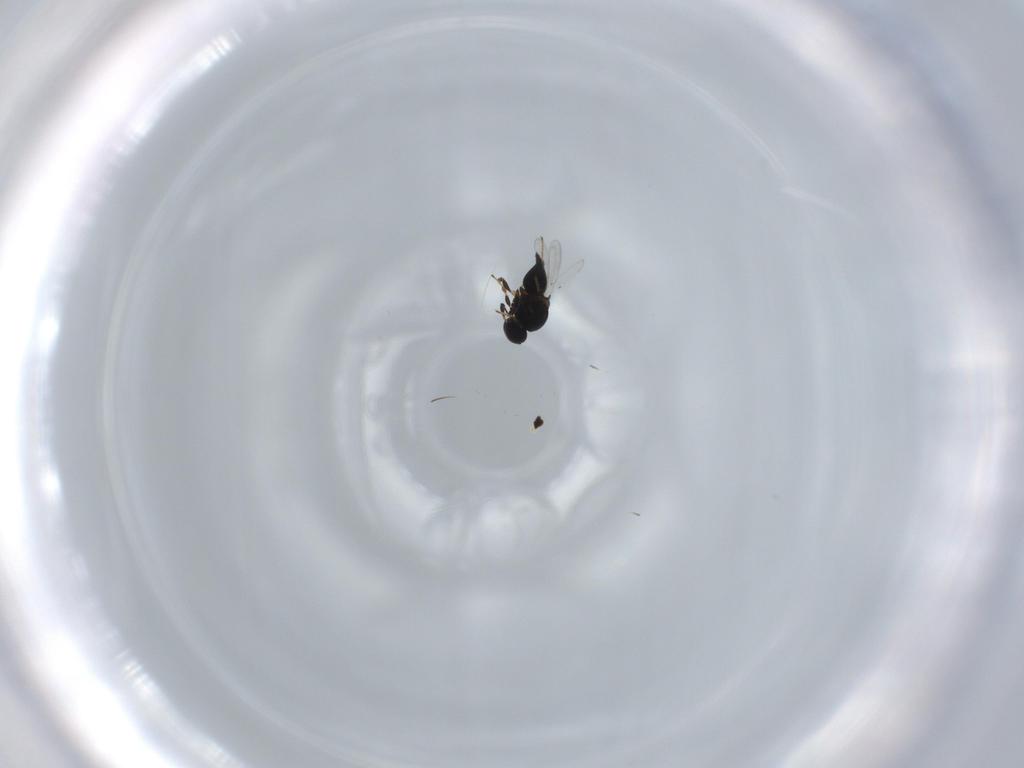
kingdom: Animalia
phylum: Arthropoda
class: Insecta
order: Hymenoptera
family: Platygastridae
